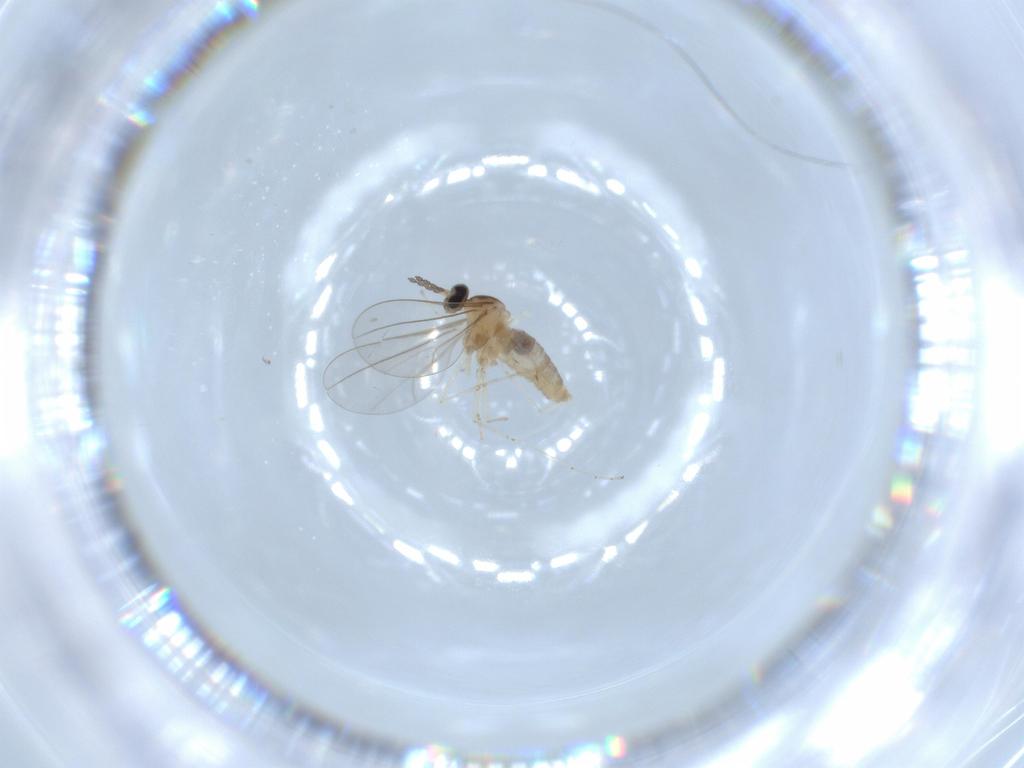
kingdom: Animalia
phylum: Arthropoda
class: Insecta
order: Diptera
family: Cecidomyiidae
